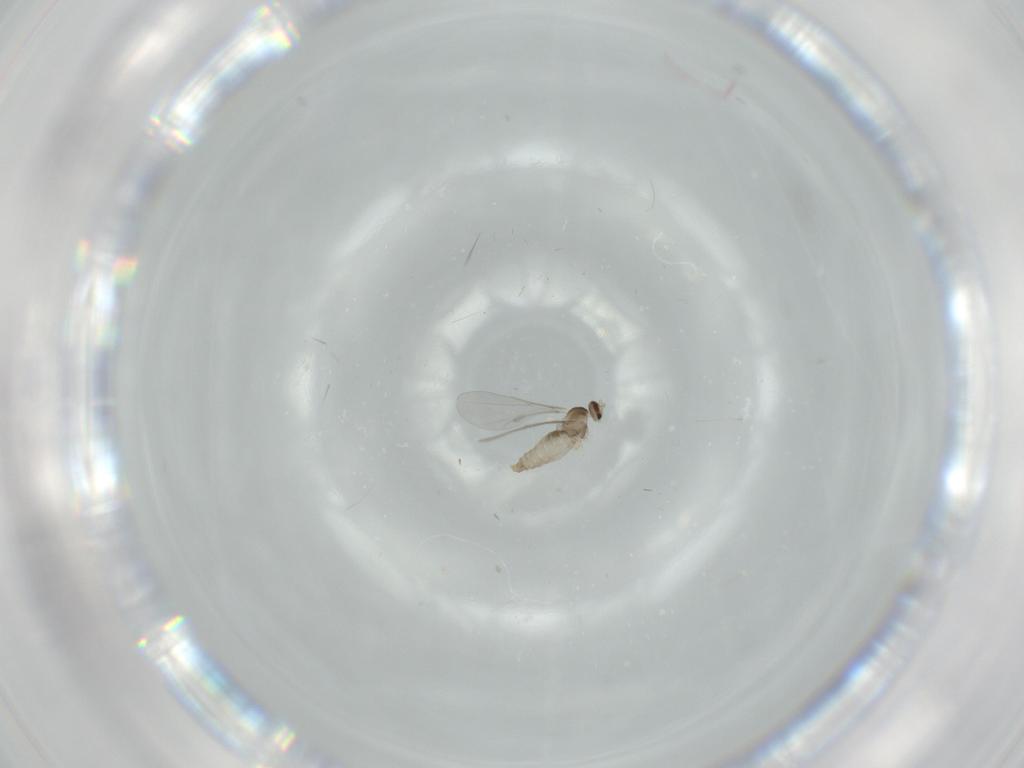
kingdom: Animalia
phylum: Arthropoda
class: Insecta
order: Diptera
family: Cecidomyiidae
